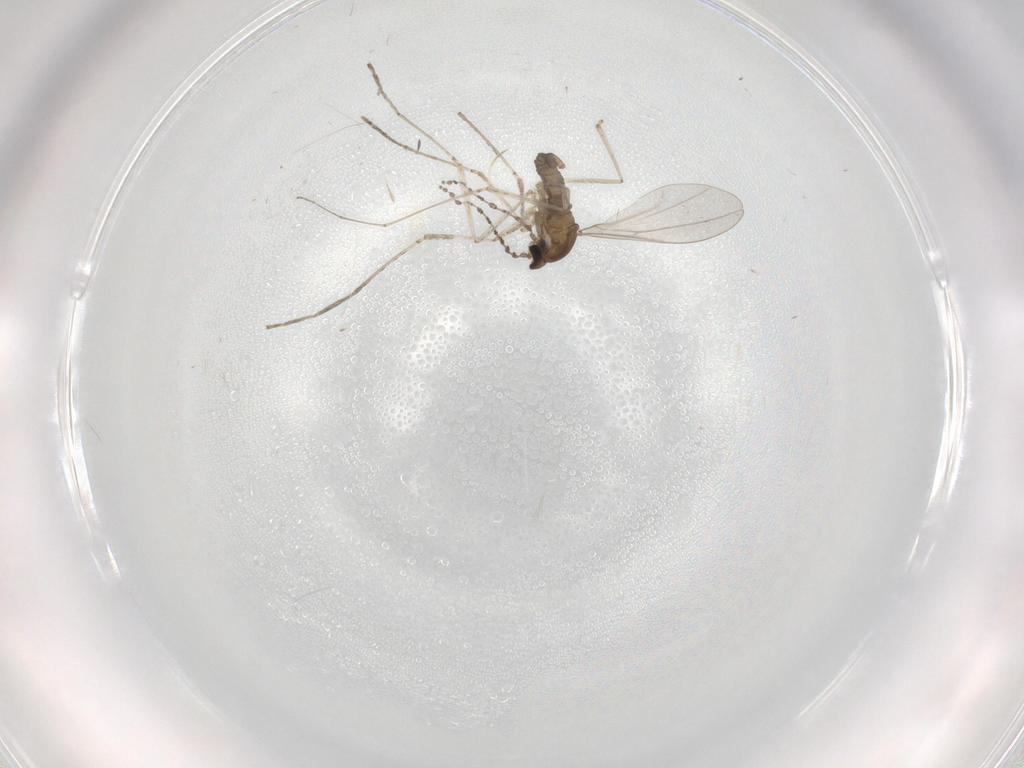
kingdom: Animalia
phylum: Arthropoda
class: Insecta
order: Diptera
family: Cecidomyiidae
